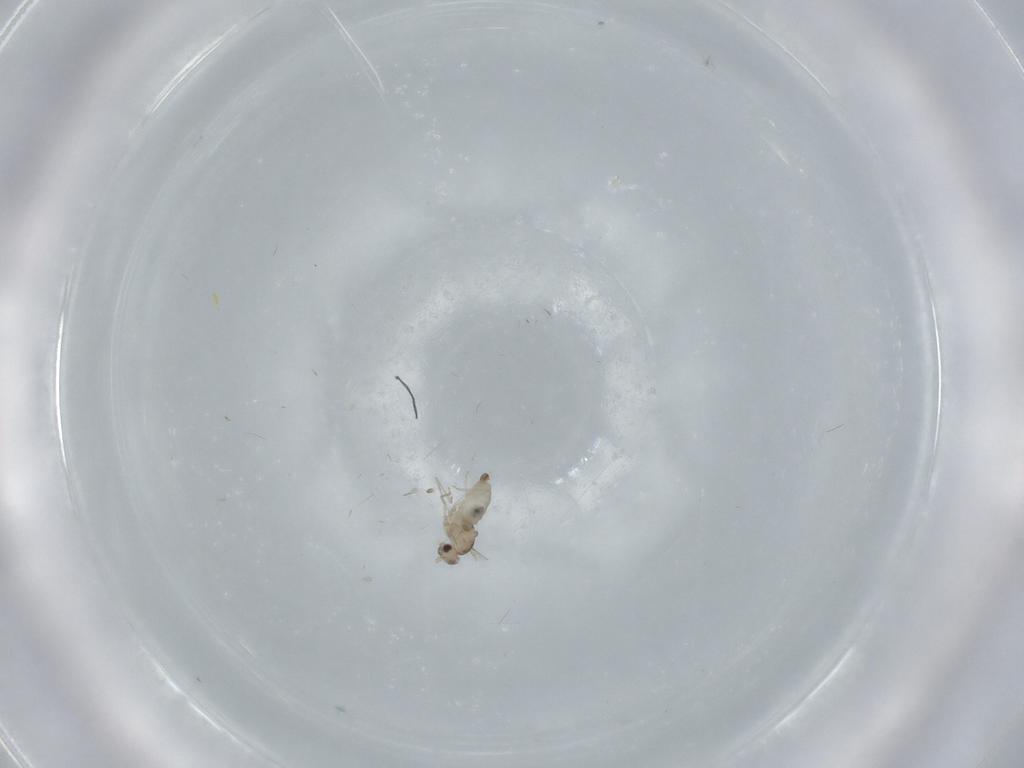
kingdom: Animalia
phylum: Arthropoda
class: Insecta
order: Diptera
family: Cecidomyiidae
